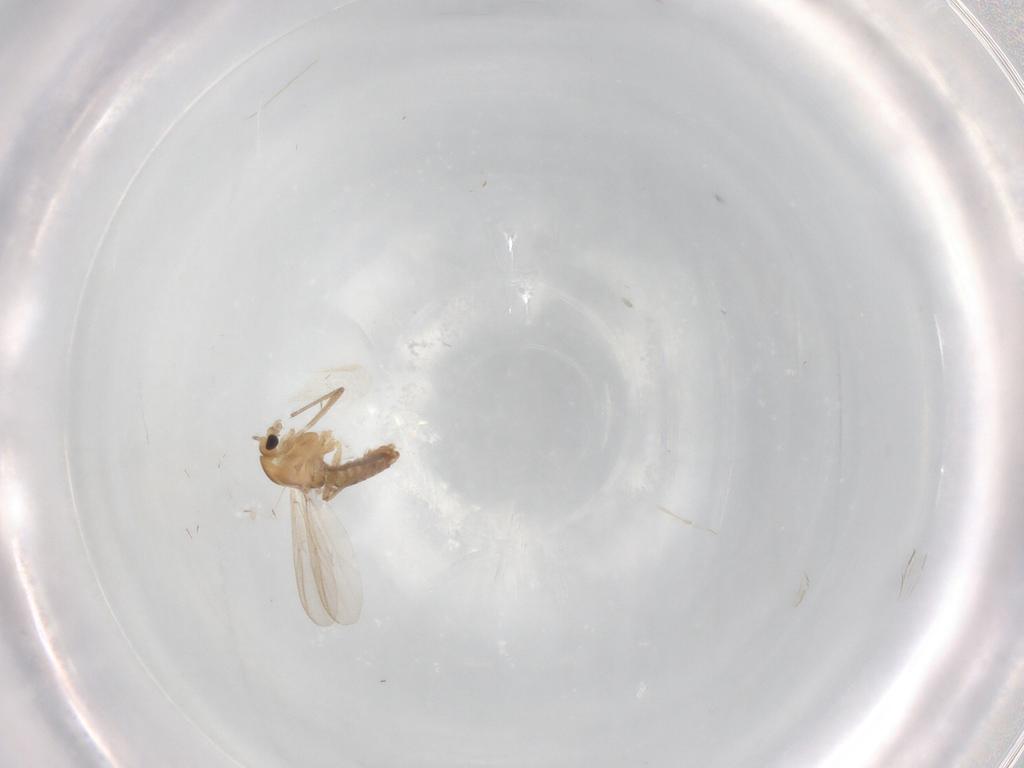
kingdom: Animalia
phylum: Arthropoda
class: Insecta
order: Diptera
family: Chironomidae
